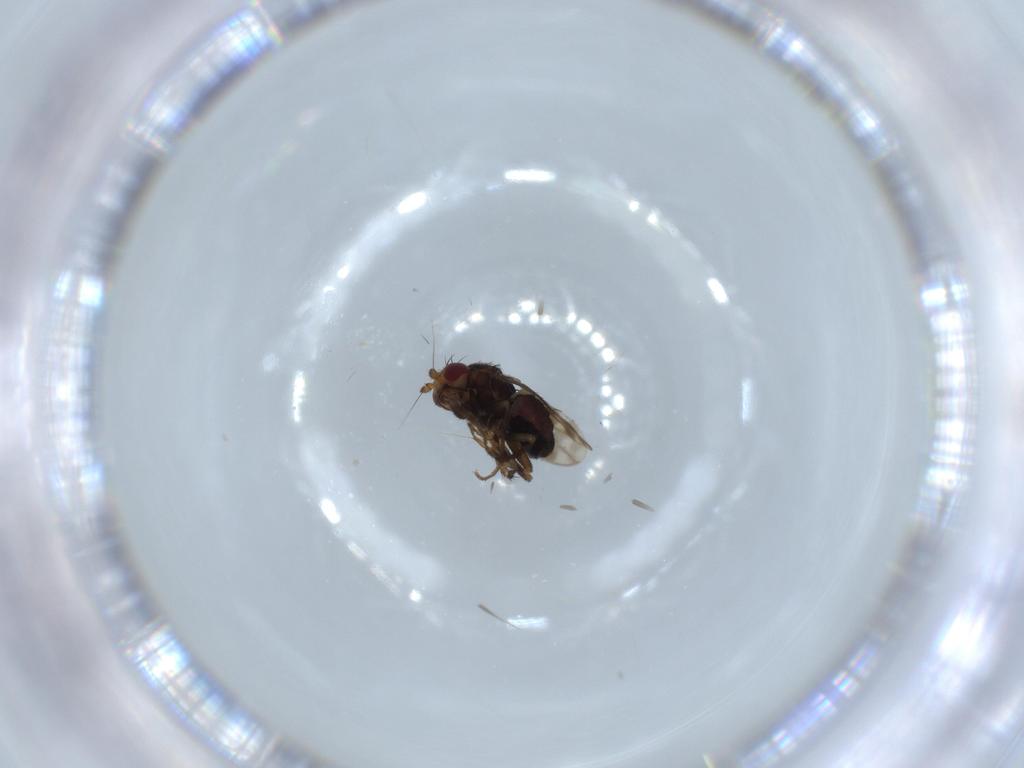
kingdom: Animalia
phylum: Arthropoda
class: Insecta
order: Diptera
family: Sphaeroceridae
